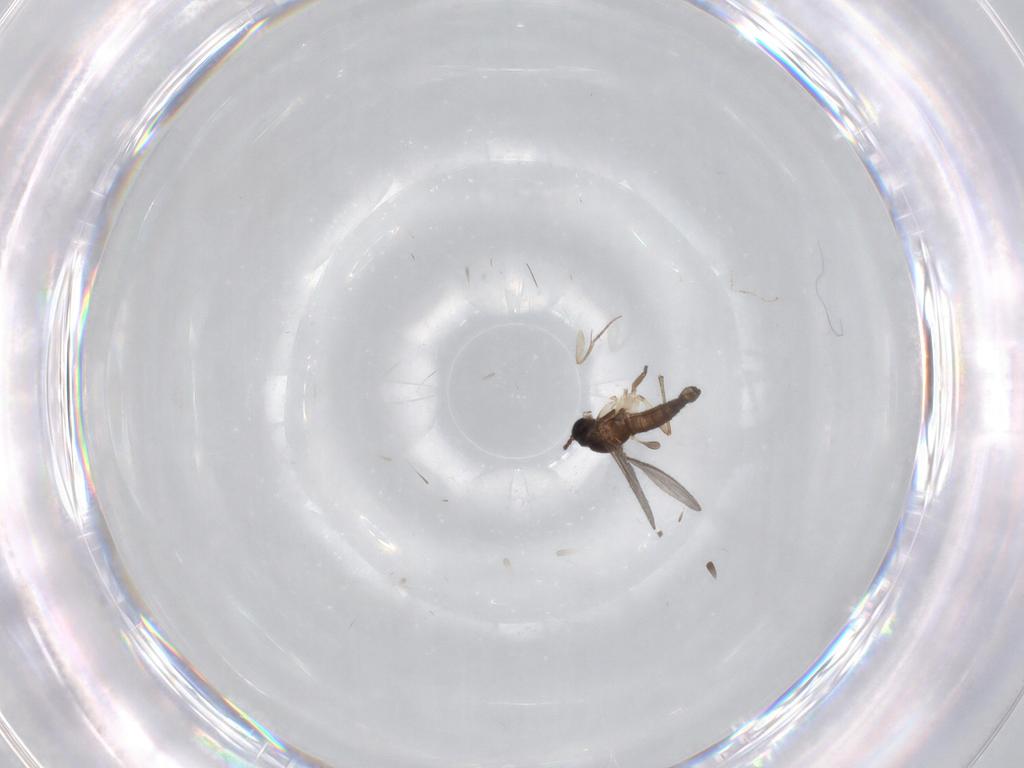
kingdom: Animalia
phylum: Arthropoda
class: Insecta
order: Diptera
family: Sciaridae
